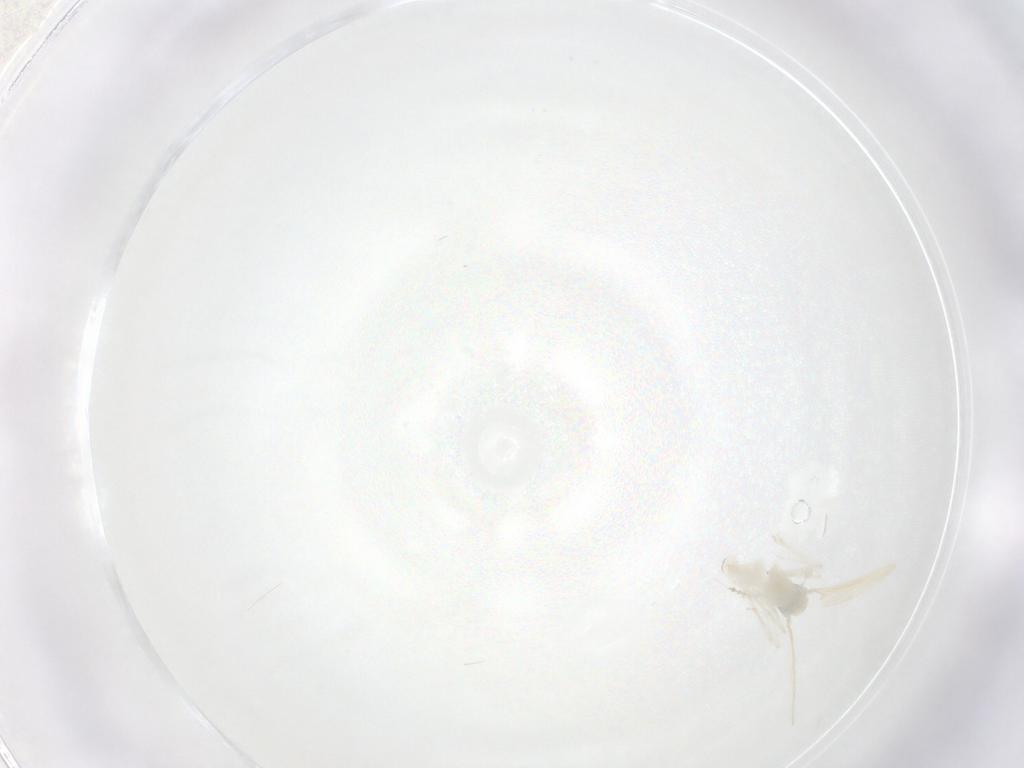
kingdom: Animalia
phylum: Arthropoda
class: Insecta
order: Diptera
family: Cecidomyiidae
